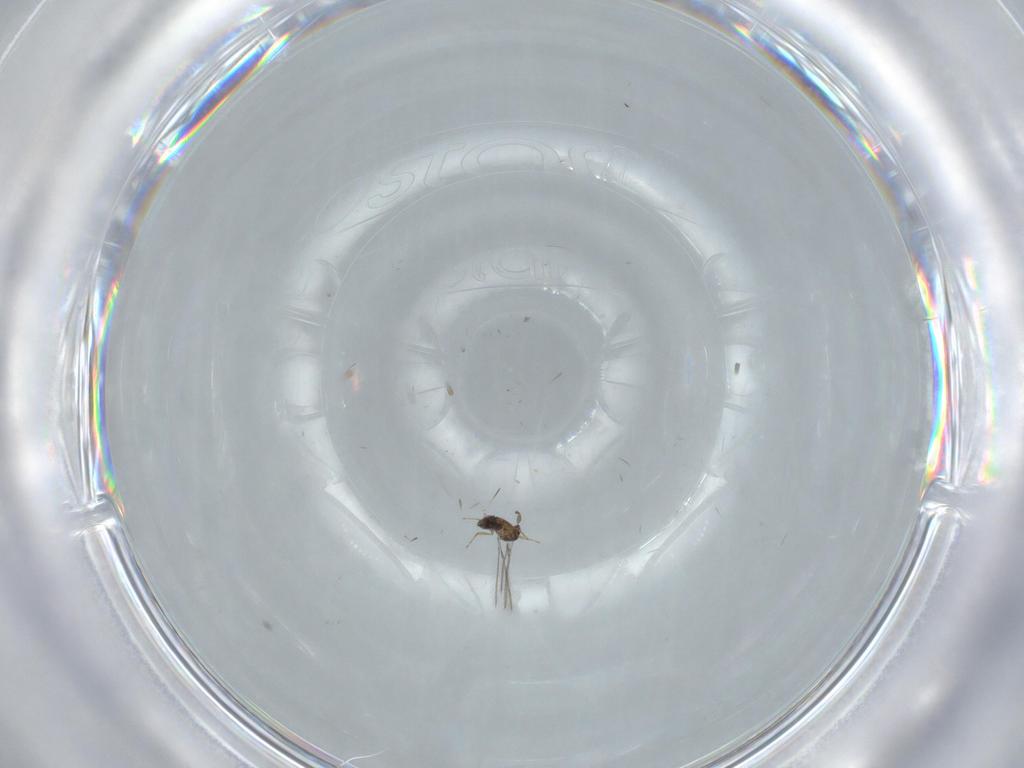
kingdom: Animalia
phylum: Arthropoda
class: Insecta
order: Hymenoptera
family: Mymaridae
